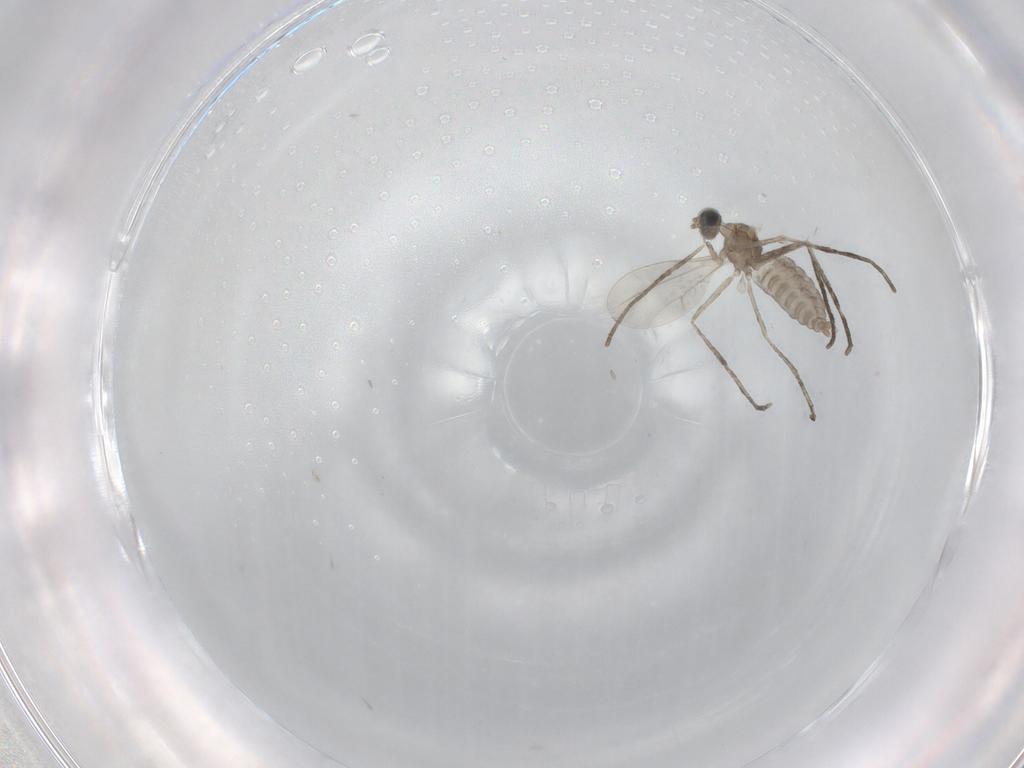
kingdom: Animalia
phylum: Arthropoda
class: Insecta
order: Diptera
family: Cecidomyiidae
